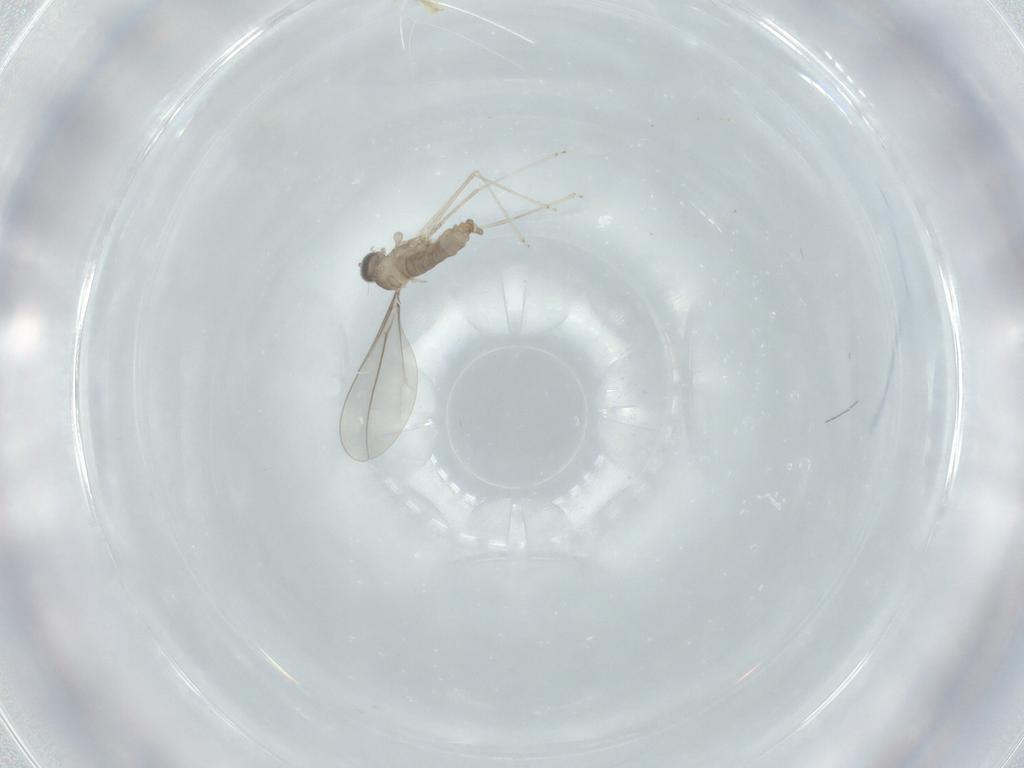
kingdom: Animalia
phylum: Arthropoda
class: Insecta
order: Diptera
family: Cecidomyiidae
